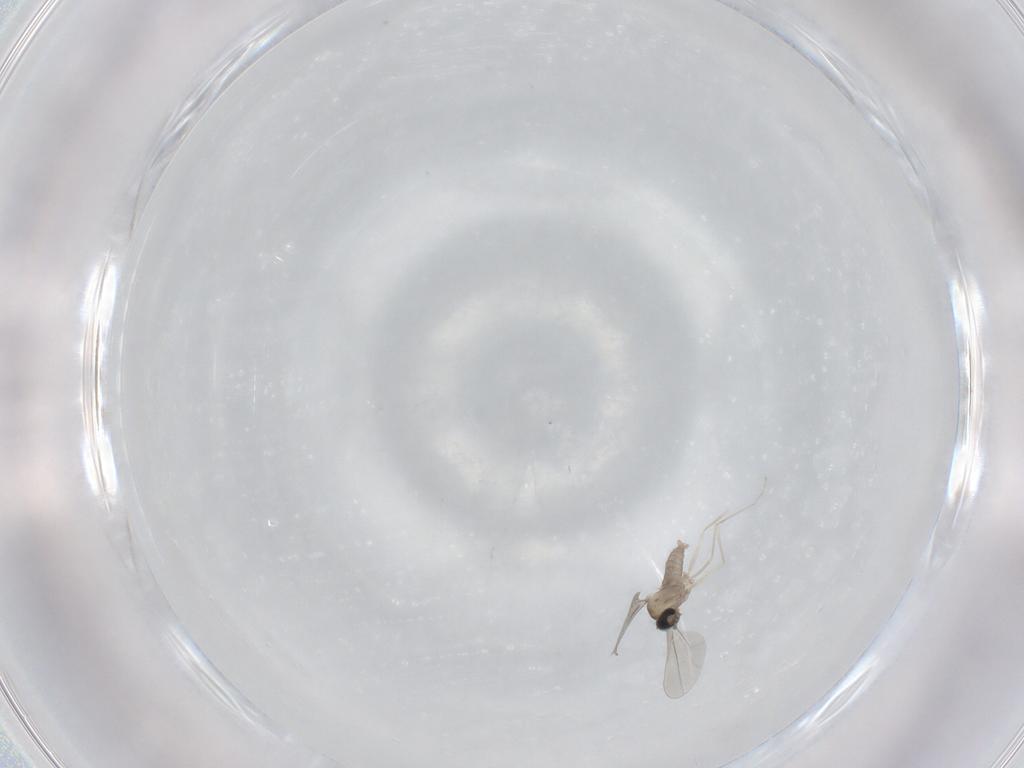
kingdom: Animalia
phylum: Arthropoda
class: Insecta
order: Diptera
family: Cecidomyiidae
